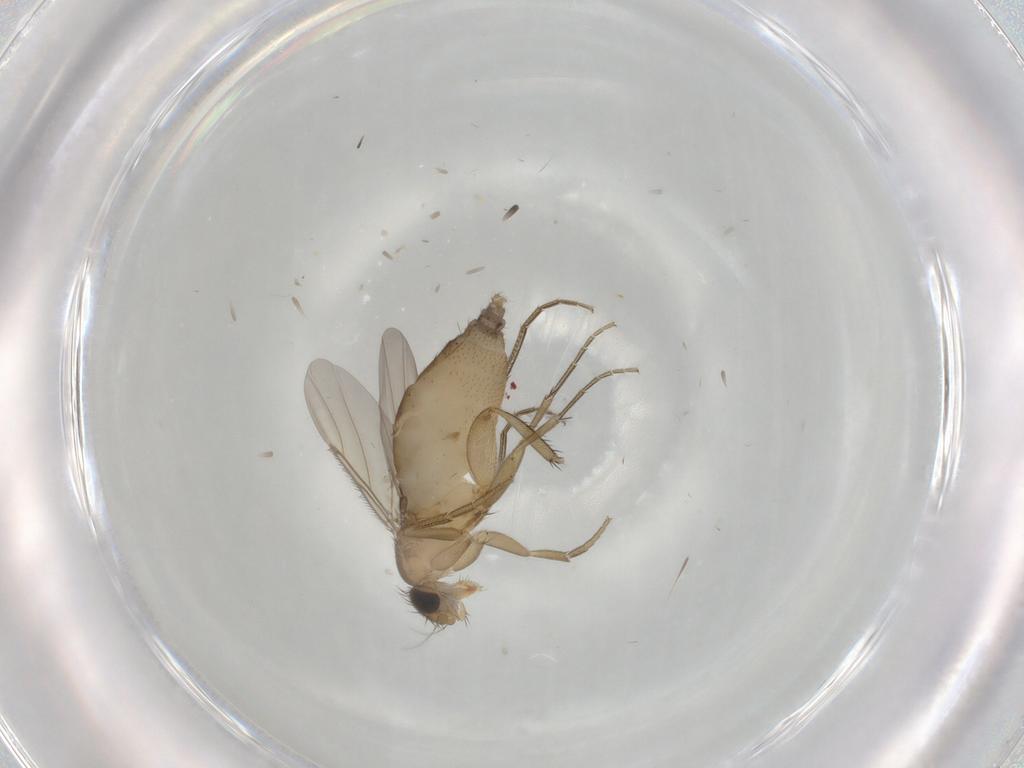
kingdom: Animalia
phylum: Arthropoda
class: Insecta
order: Diptera
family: Phoridae
